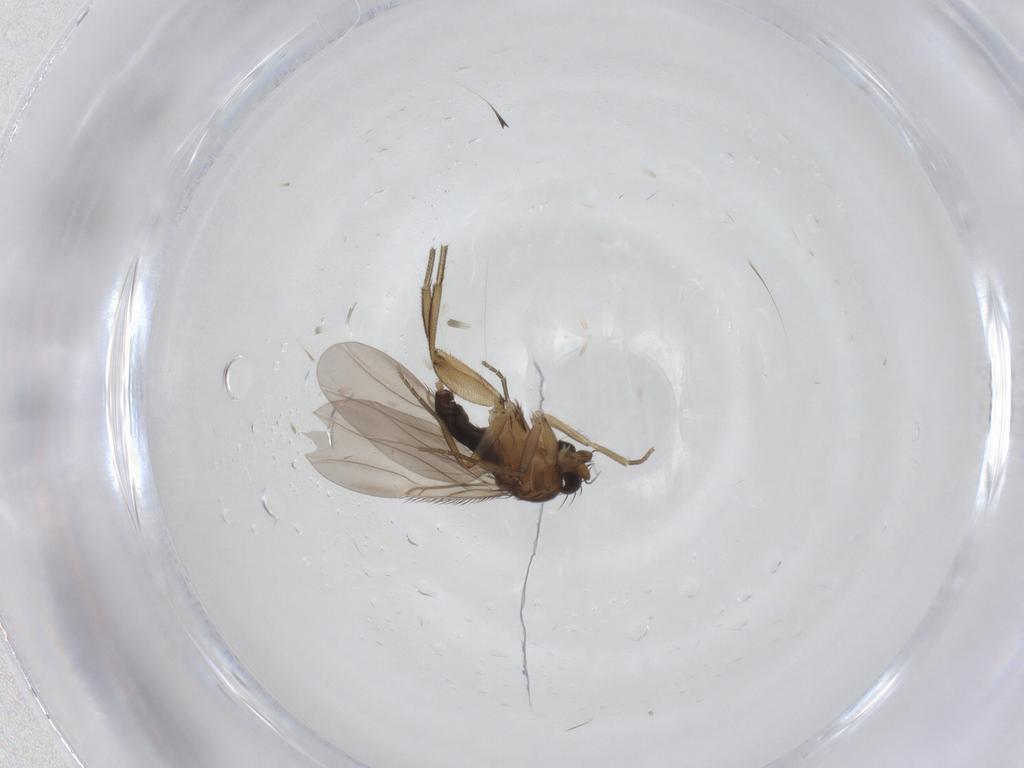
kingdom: Animalia
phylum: Arthropoda
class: Insecta
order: Diptera
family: Phoridae
